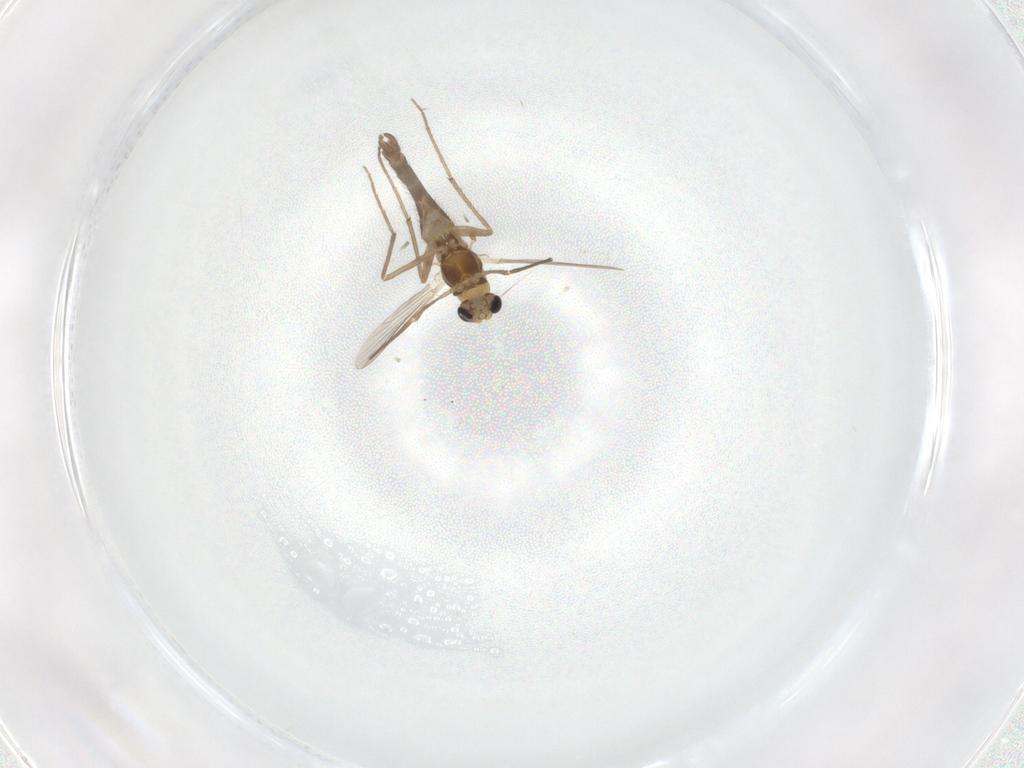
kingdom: Animalia
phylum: Arthropoda
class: Insecta
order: Diptera
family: Chironomidae
